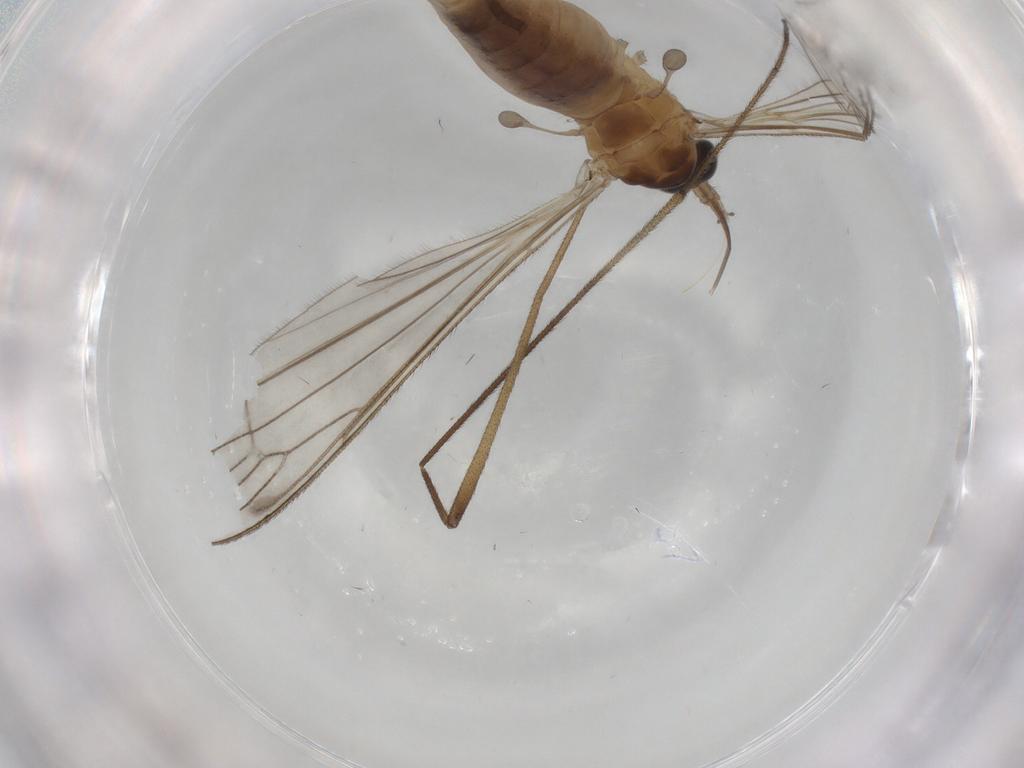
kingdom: Animalia
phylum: Arthropoda
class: Insecta
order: Diptera
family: Limoniidae
